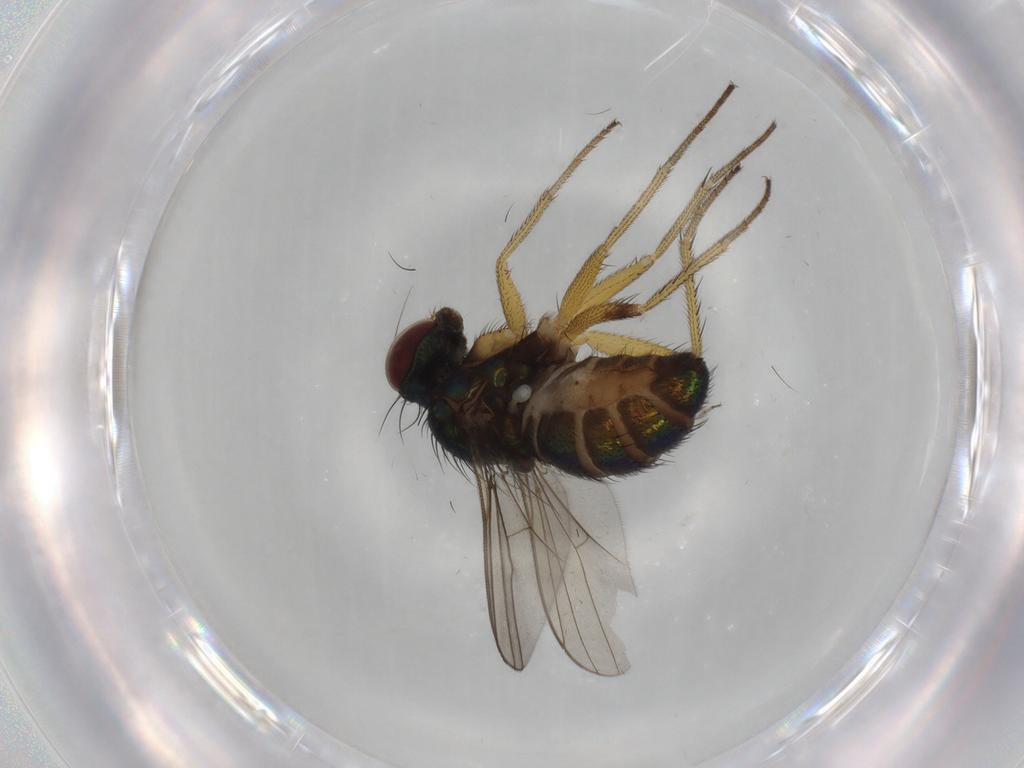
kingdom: Animalia
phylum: Arthropoda
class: Insecta
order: Diptera
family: Dolichopodidae
